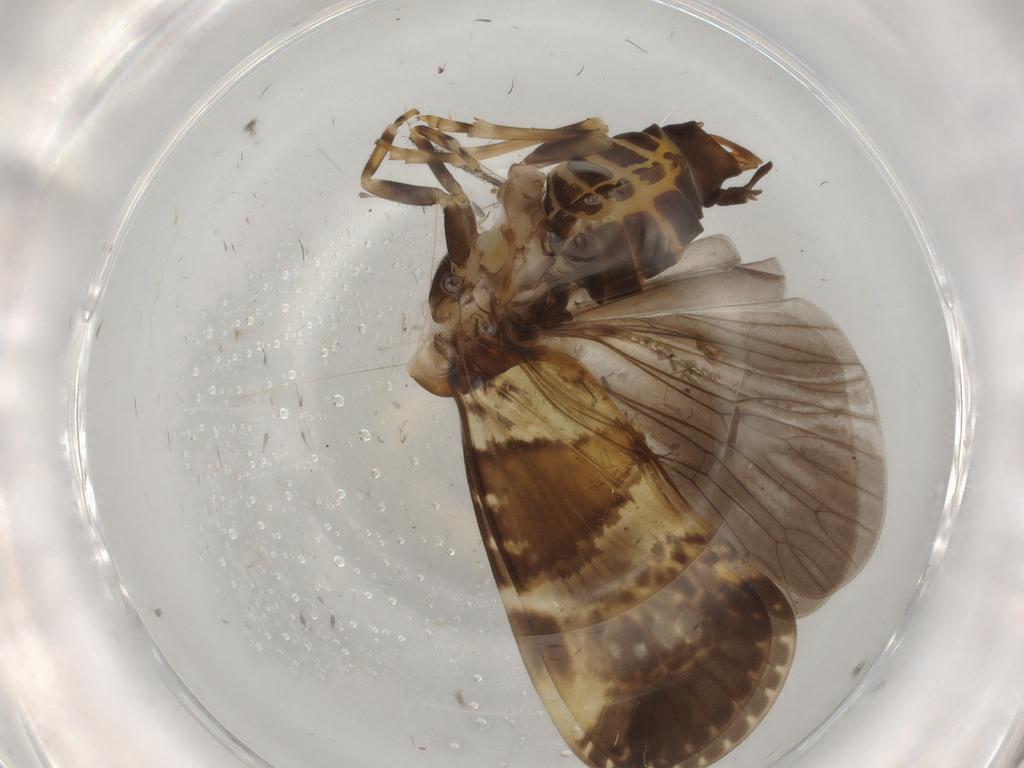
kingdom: Animalia
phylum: Arthropoda
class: Insecta
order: Hemiptera
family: Cixiidae
